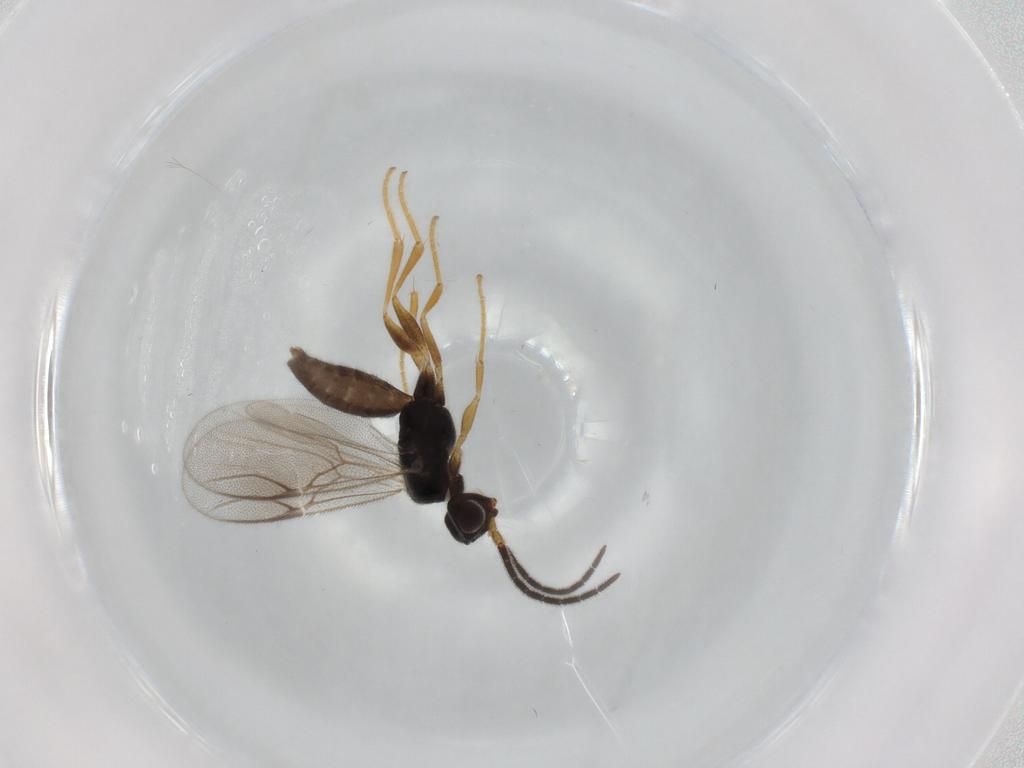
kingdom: Animalia
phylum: Arthropoda
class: Insecta
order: Hymenoptera
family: Dryinidae
